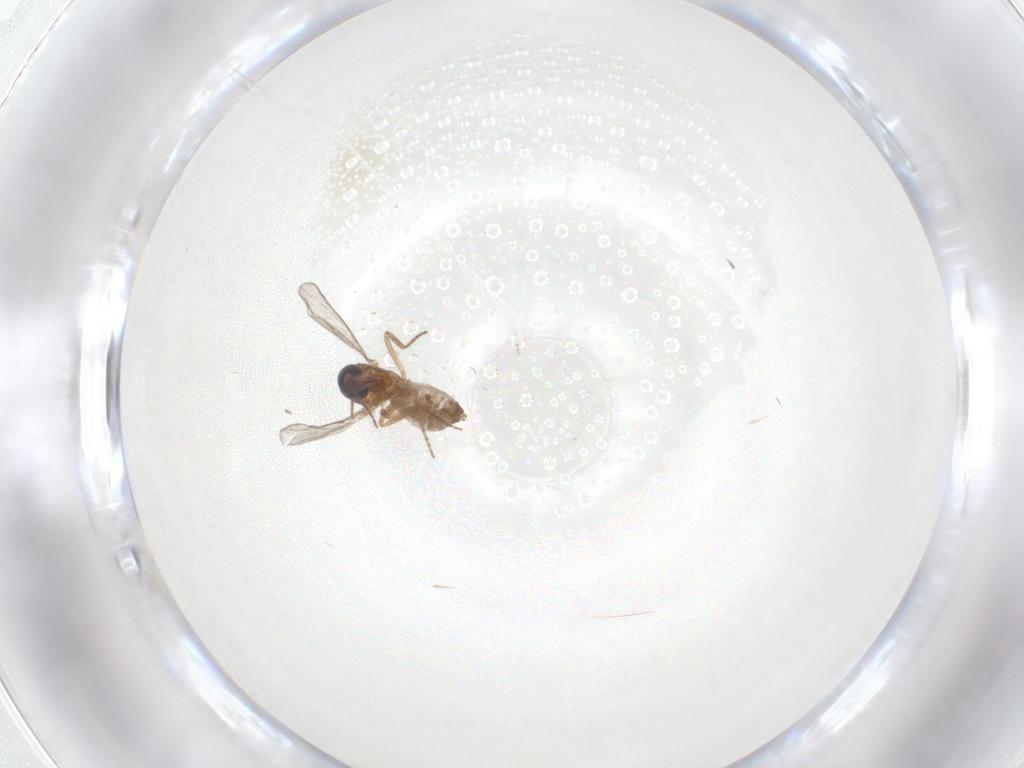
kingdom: Animalia
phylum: Arthropoda
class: Insecta
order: Diptera
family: Ceratopogonidae
